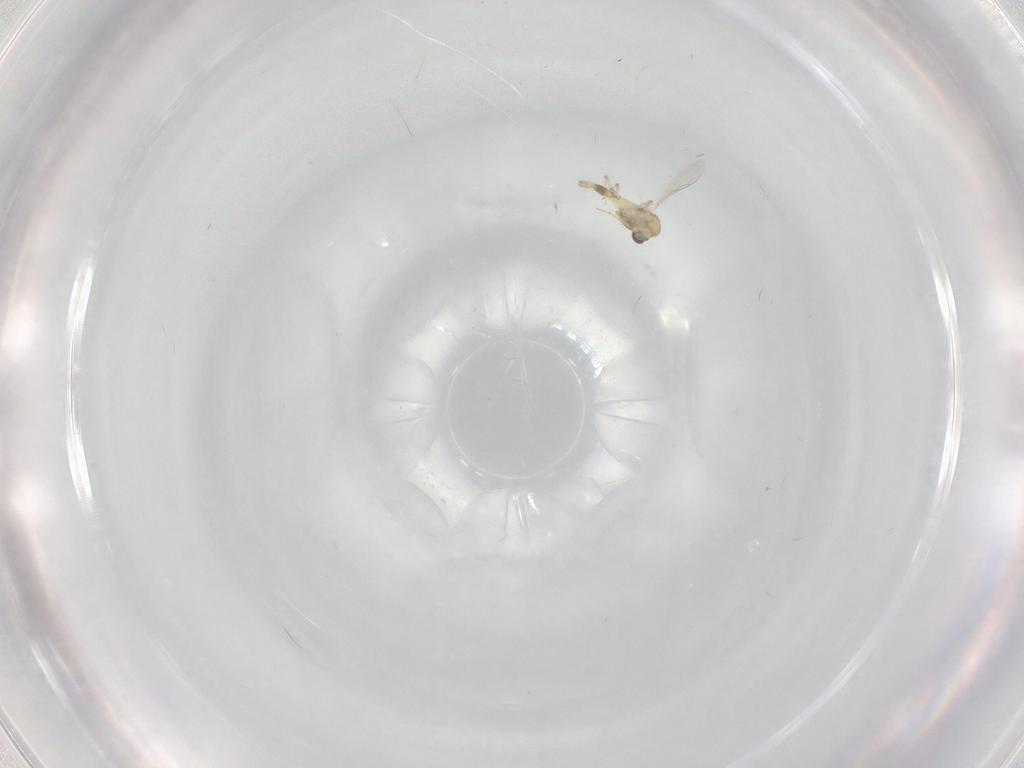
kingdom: Animalia
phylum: Arthropoda
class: Insecta
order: Diptera
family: Chironomidae
